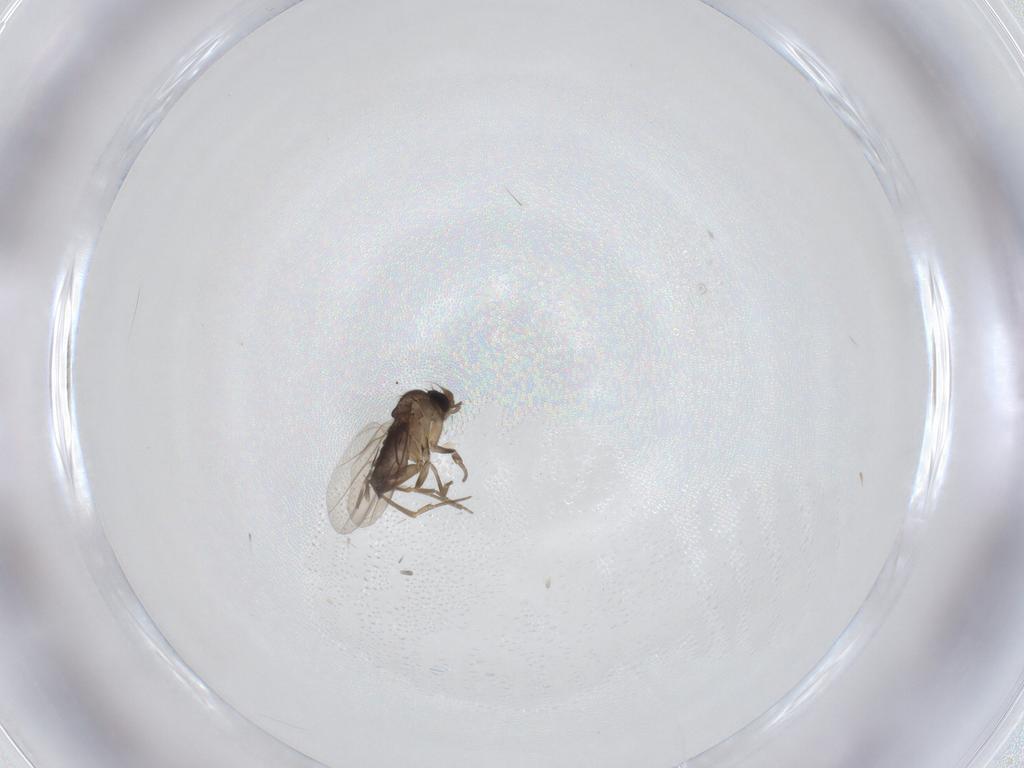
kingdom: Animalia
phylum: Arthropoda
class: Insecta
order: Diptera
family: Phoridae
